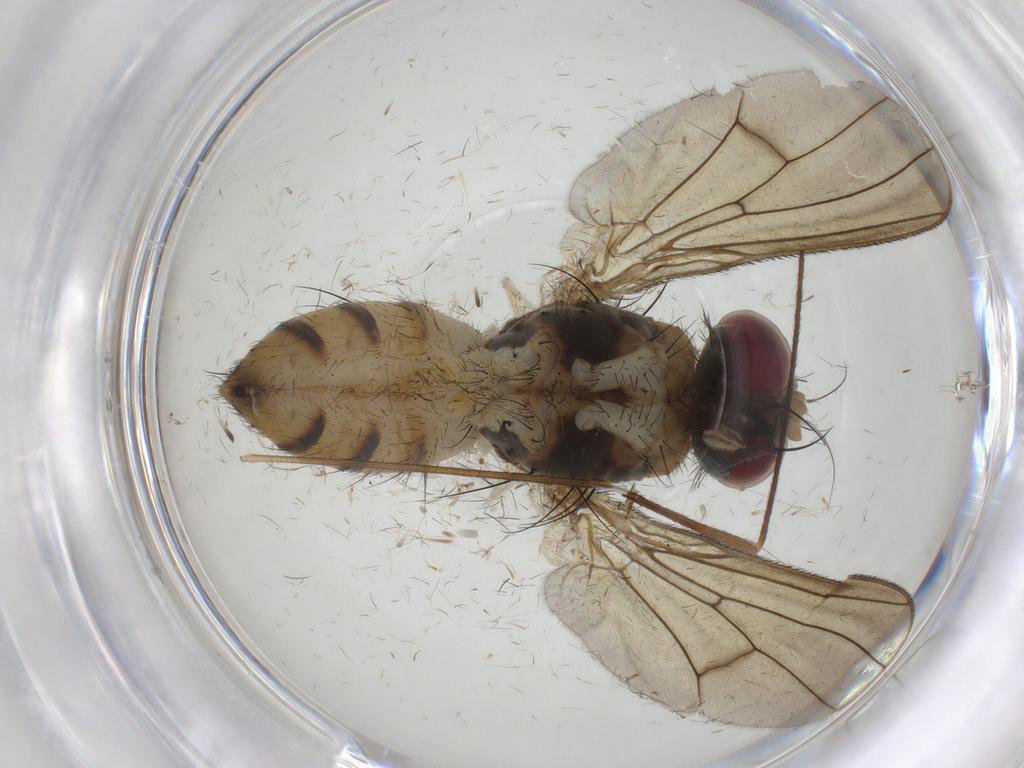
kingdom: Animalia
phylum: Arthropoda
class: Insecta
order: Diptera
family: Muscidae
